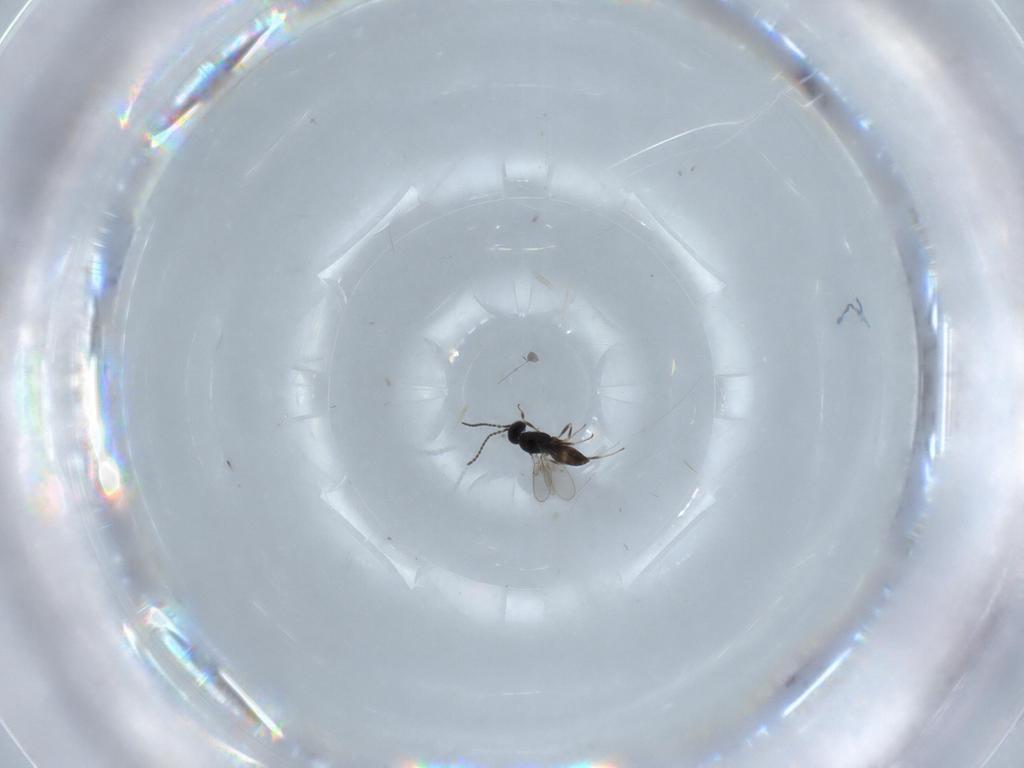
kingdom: Animalia
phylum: Arthropoda
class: Insecta
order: Hymenoptera
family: Scelionidae
